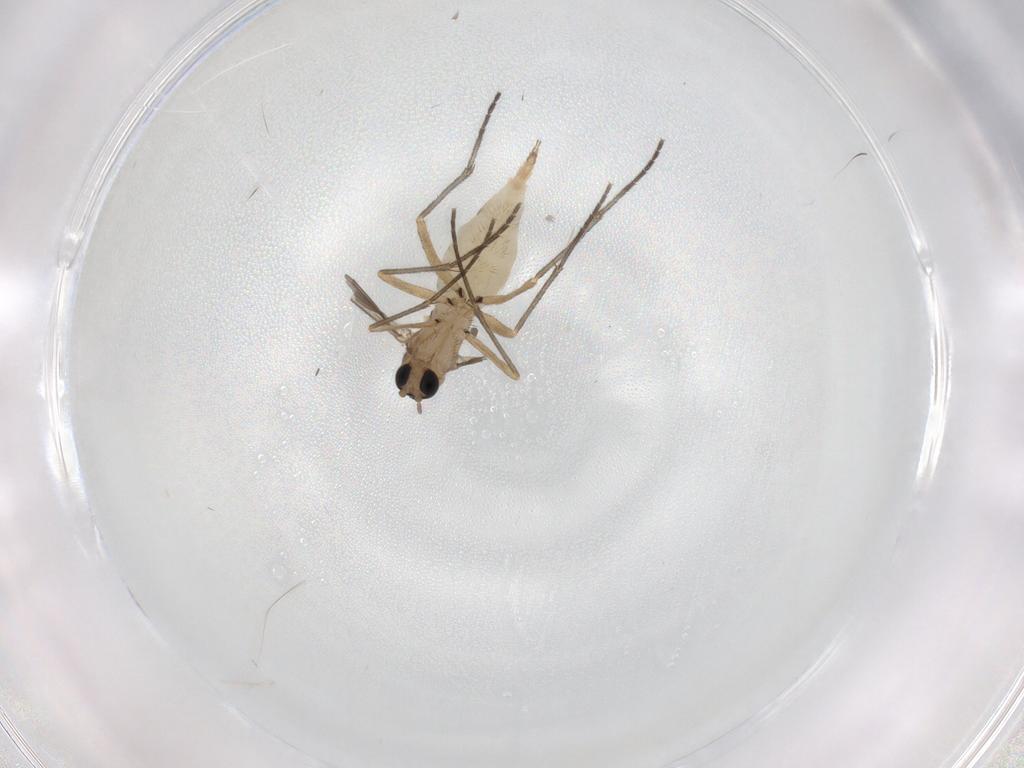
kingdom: Animalia
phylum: Arthropoda
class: Insecta
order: Diptera
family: Sciaridae
